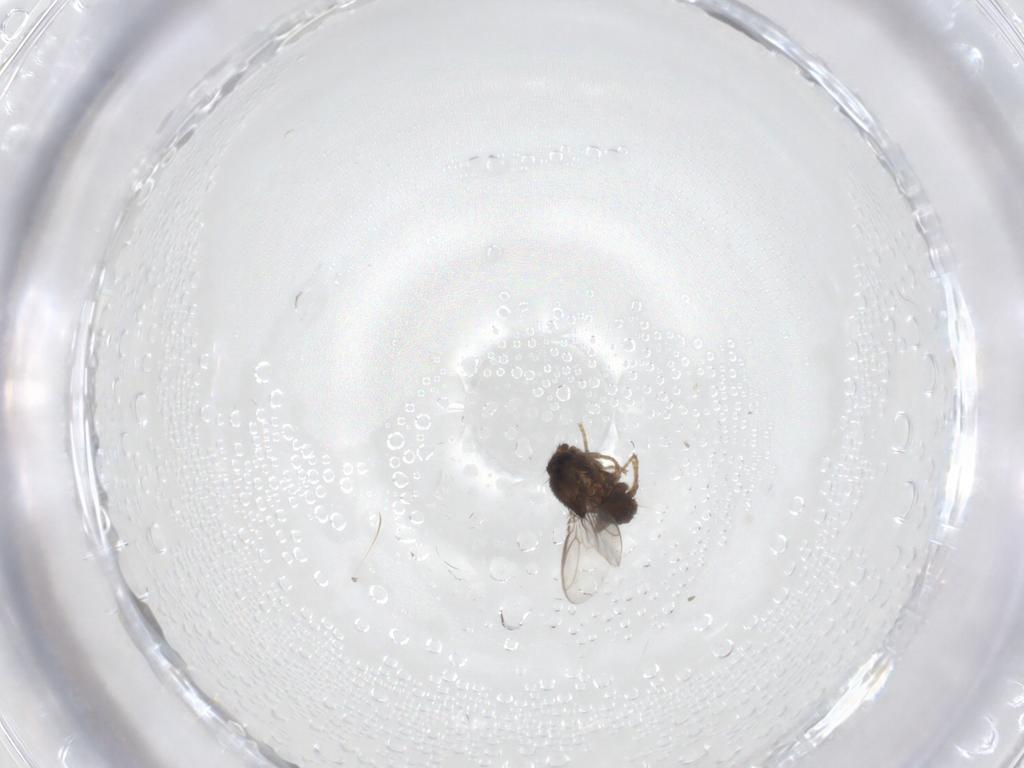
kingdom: Animalia
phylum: Arthropoda
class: Insecta
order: Diptera
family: Sphaeroceridae
